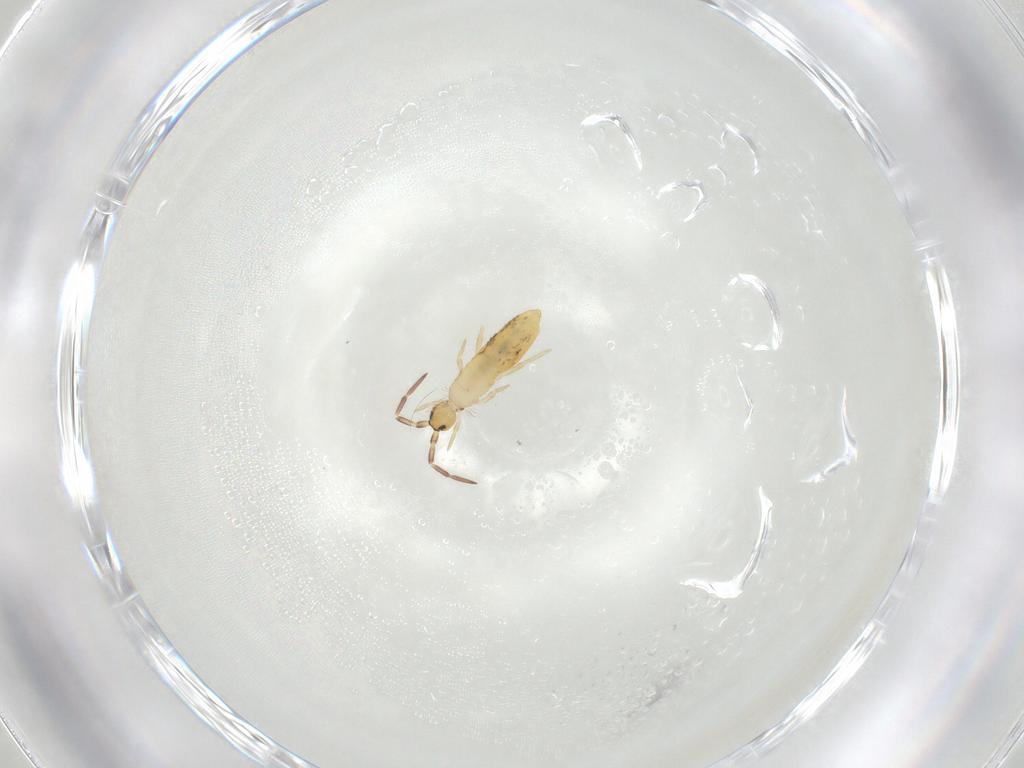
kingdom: Animalia
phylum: Arthropoda
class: Collembola
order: Entomobryomorpha
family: Entomobryidae
